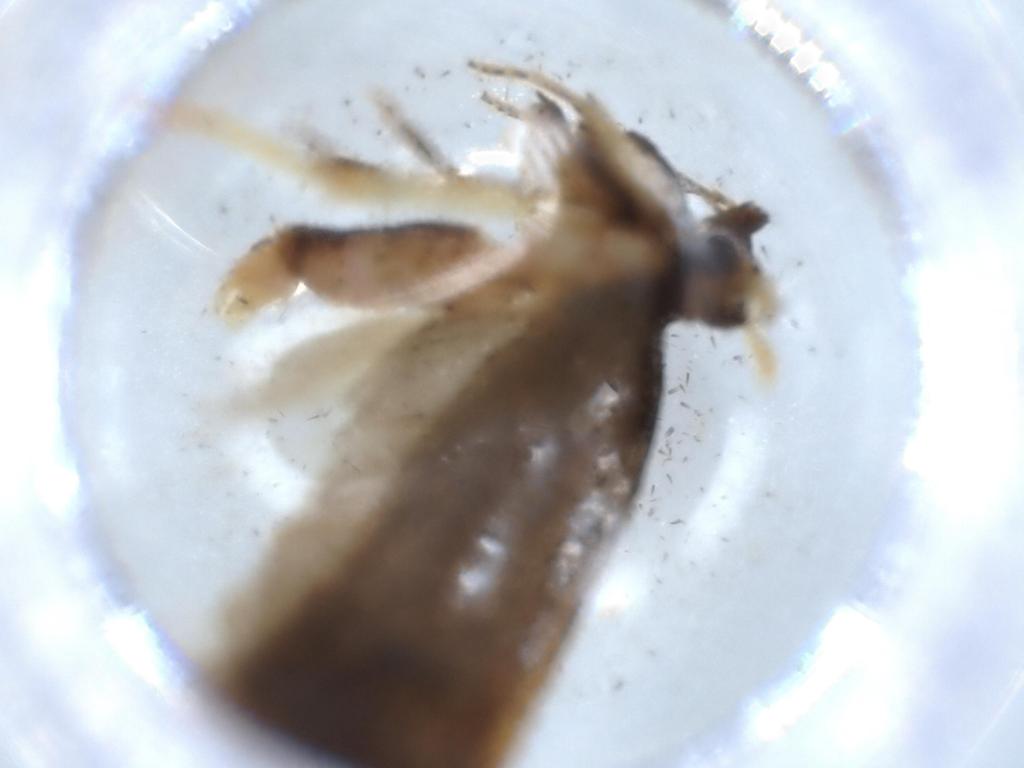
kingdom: Animalia
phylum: Arthropoda
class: Insecta
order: Lepidoptera
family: Lecithoceridae
